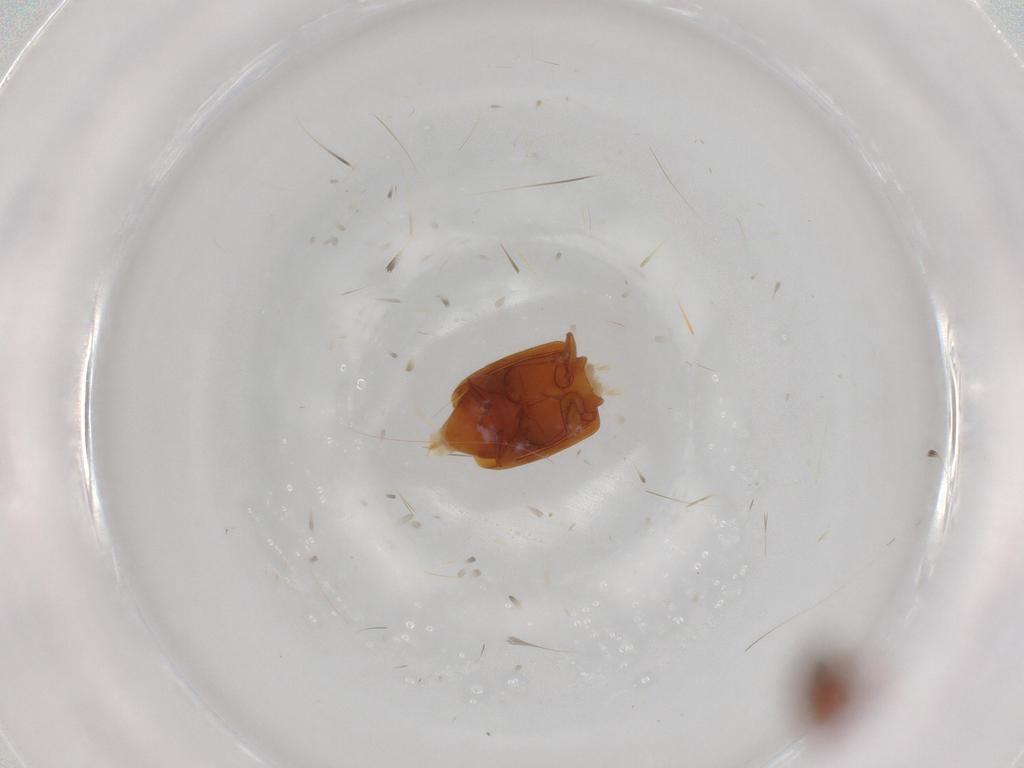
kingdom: Animalia
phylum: Arthropoda
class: Insecta
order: Coleoptera
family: Nitidulidae
